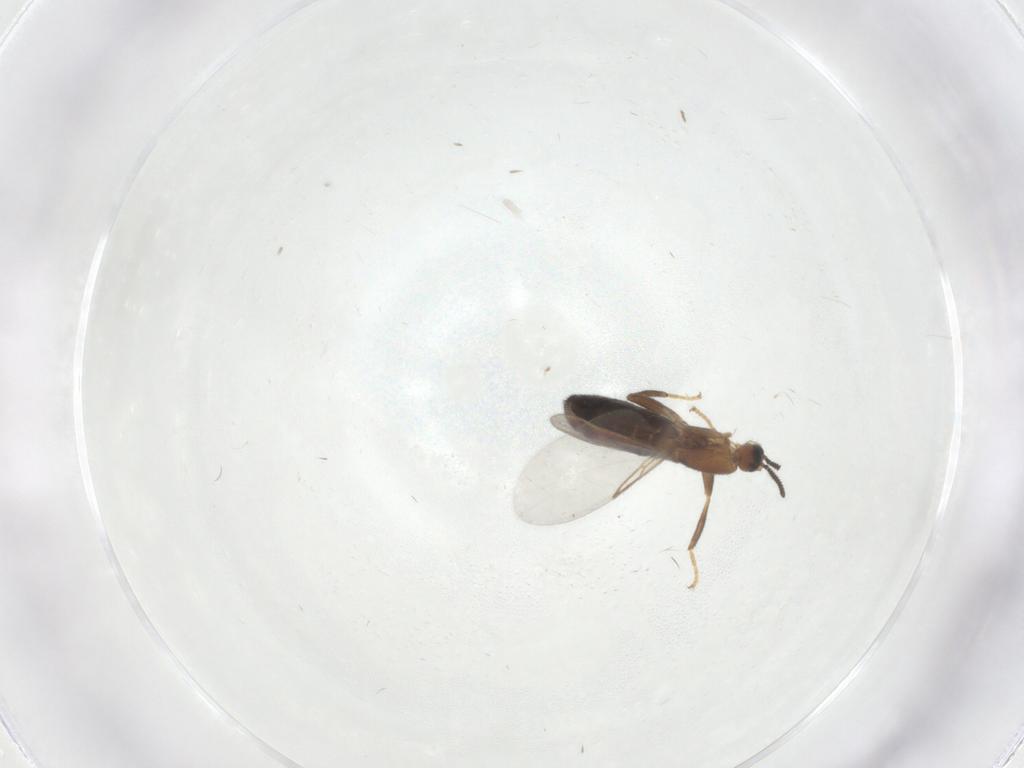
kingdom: Animalia
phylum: Arthropoda
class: Insecta
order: Diptera
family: Scatopsidae
